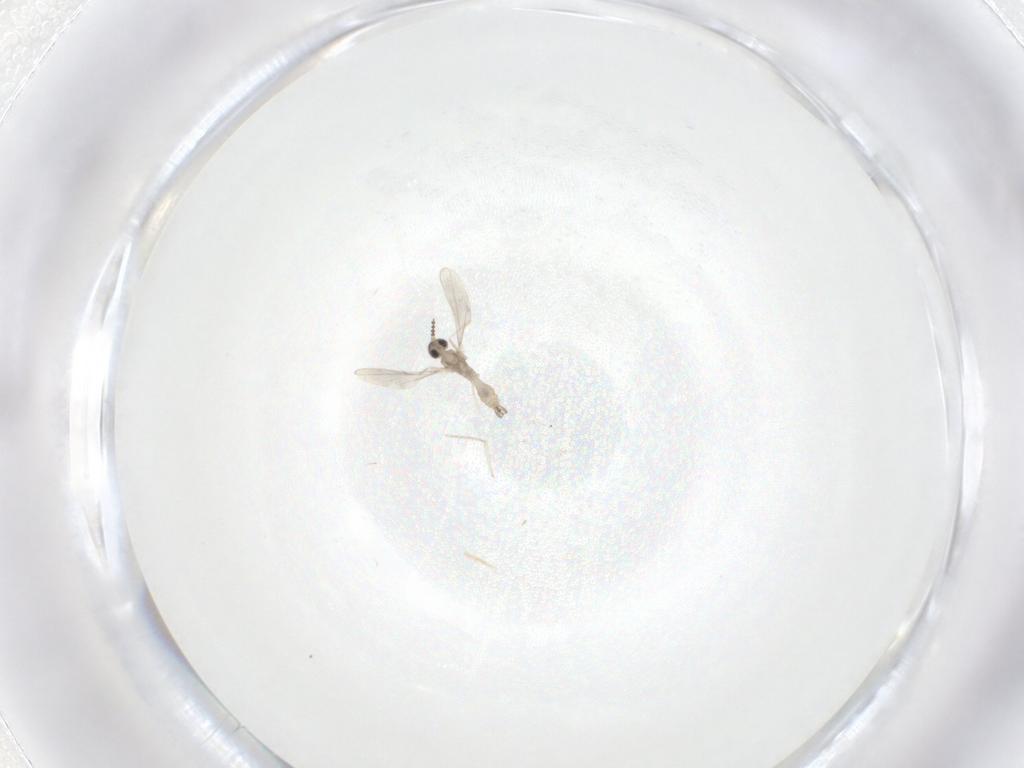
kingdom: Animalia
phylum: Arthropoda
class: Insecta
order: Diptera
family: Cecidomyiidae
